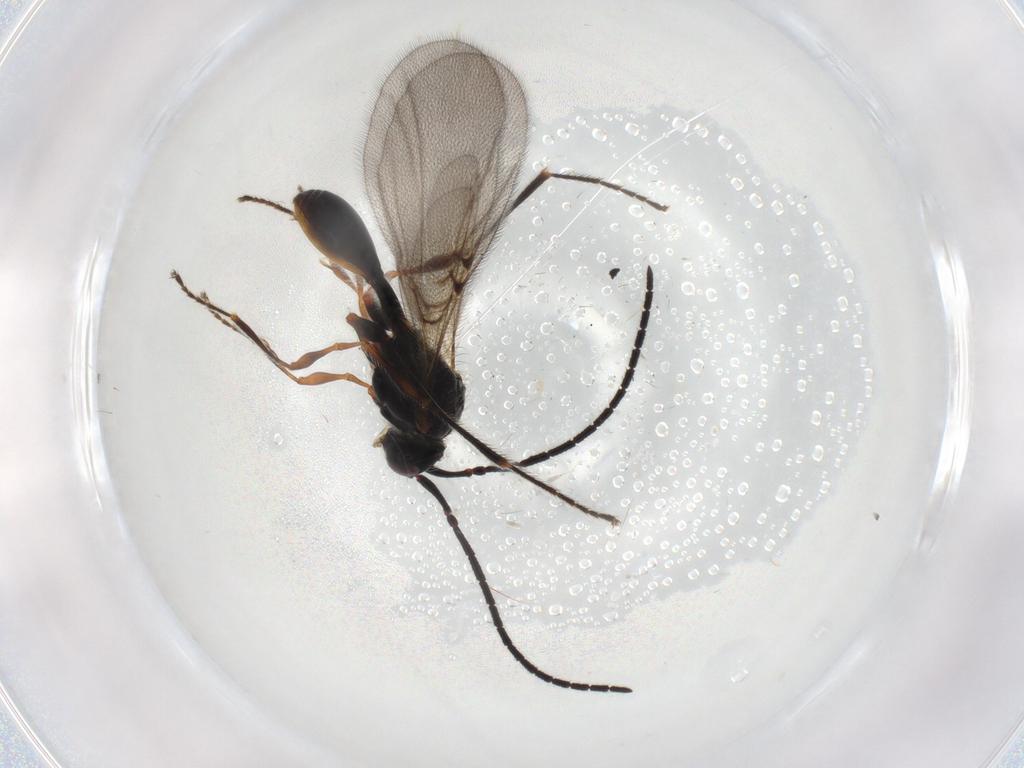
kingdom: Animalia
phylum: Arthropoda
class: Insecta
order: Hymenoptera
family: Diapriidae
